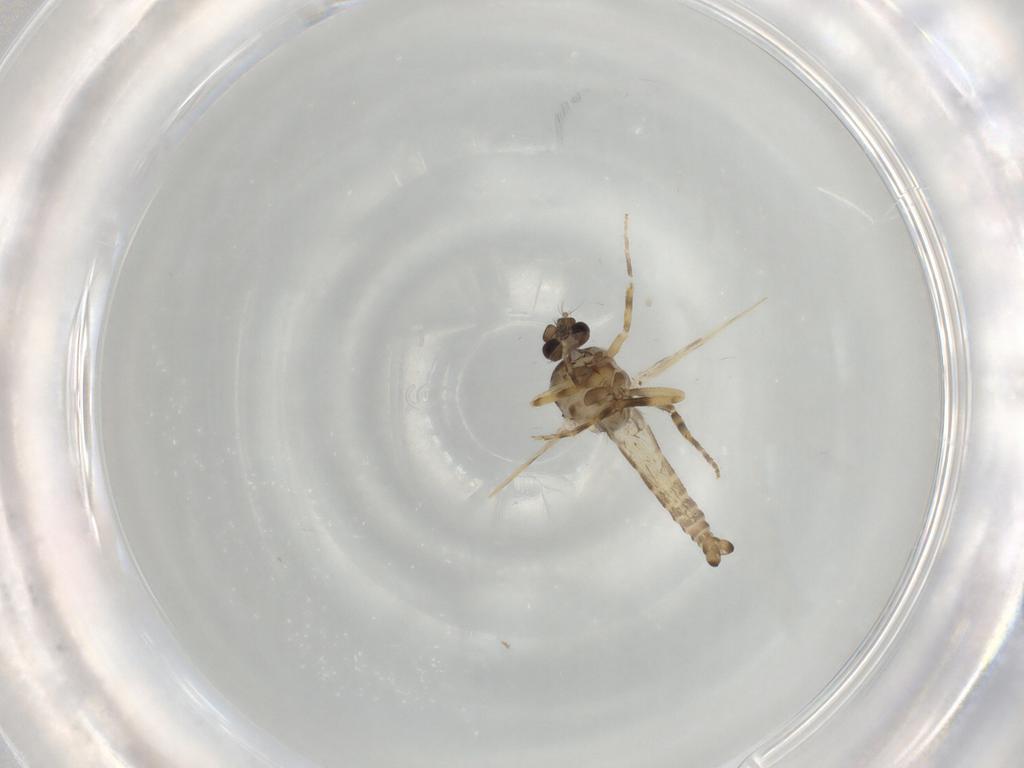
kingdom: Animalia
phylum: Arthropoda
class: Insecta
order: Diptera
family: Ceratopogonidae
